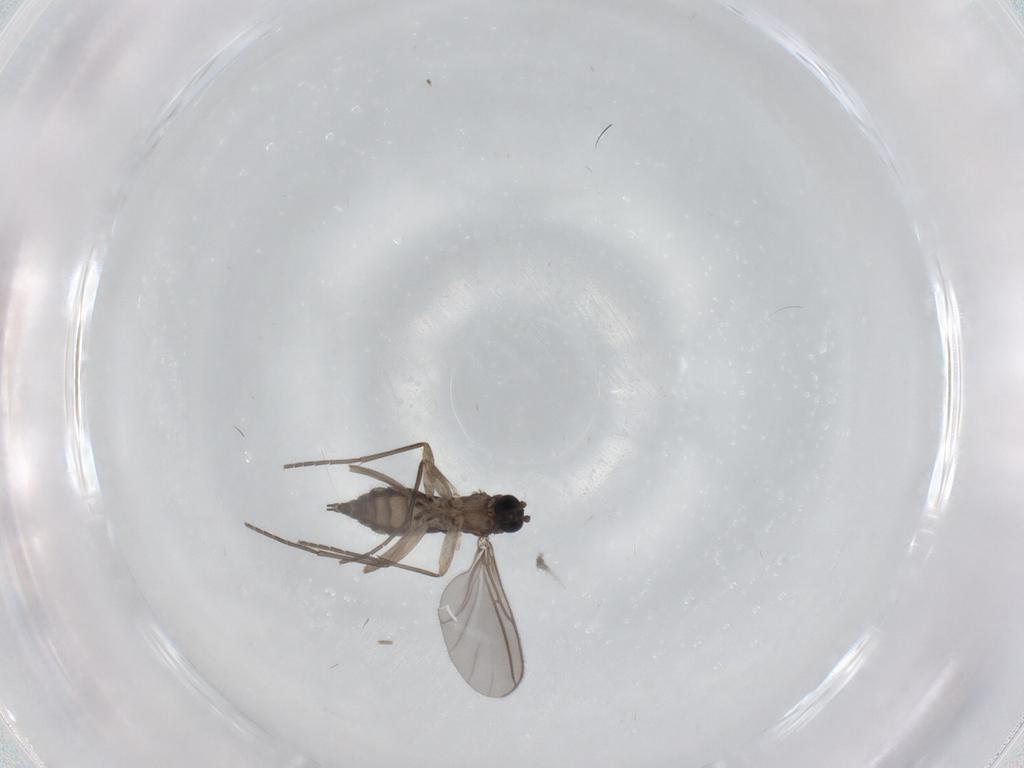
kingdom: Animalia
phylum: Arthropoda
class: Insecta
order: Diptera
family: Sciaridae
